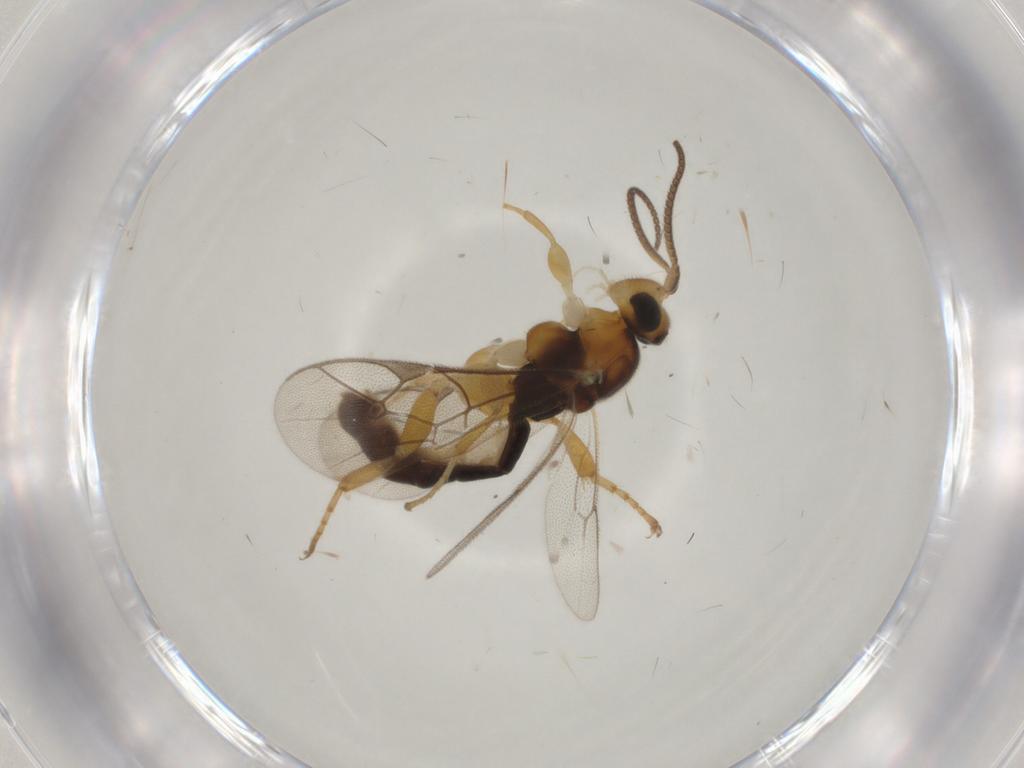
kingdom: Animalia
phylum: Arthropoda
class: Insecta
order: Hymenoptera
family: Ichneumonidae
